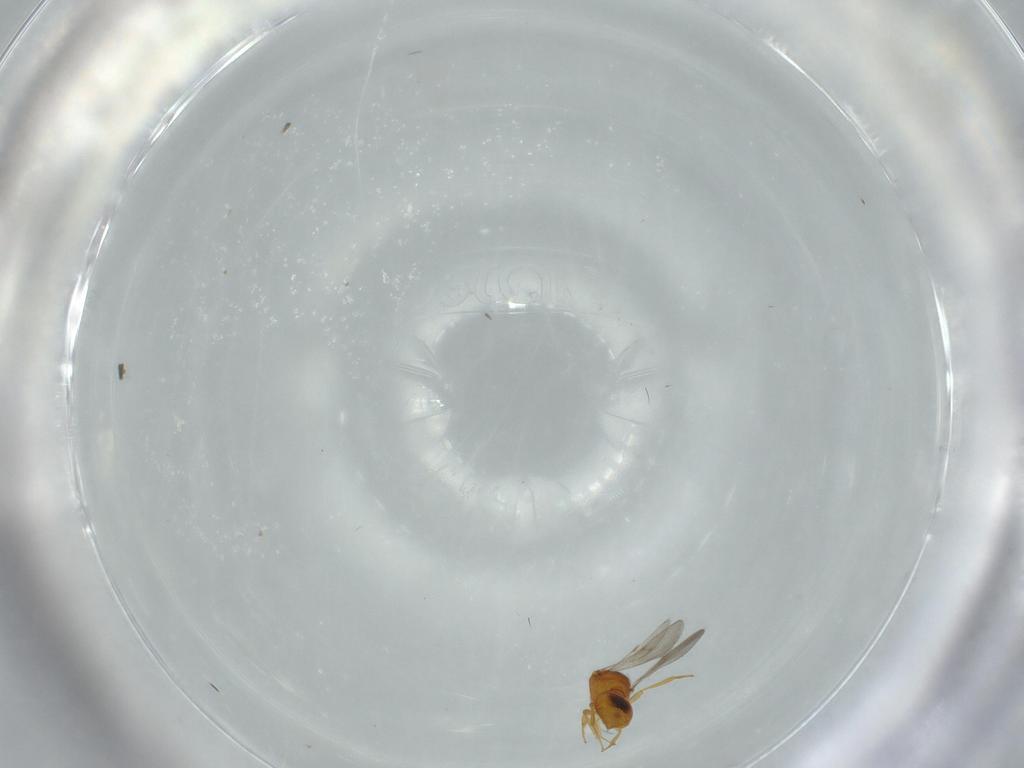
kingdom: Animalia
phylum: Arthropoda
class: Insecta
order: Hymenoptera
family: Scelionidae
